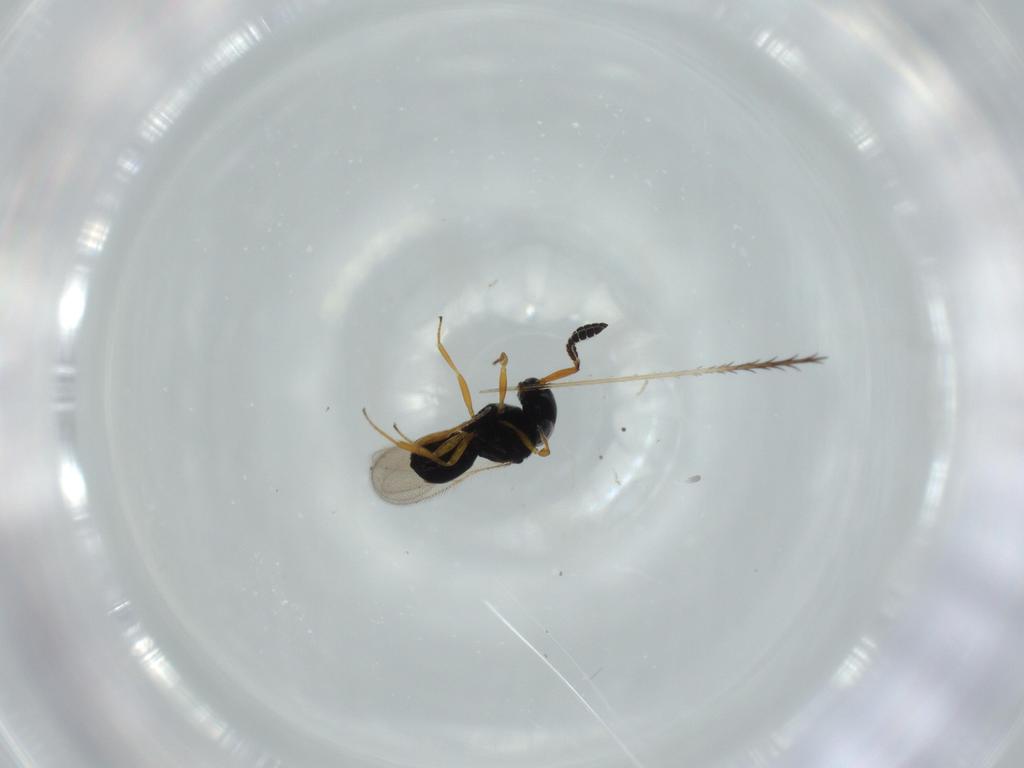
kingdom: Animalia
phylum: Arthropoda
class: Insecta
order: Hymenoptera
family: Scelionidae
